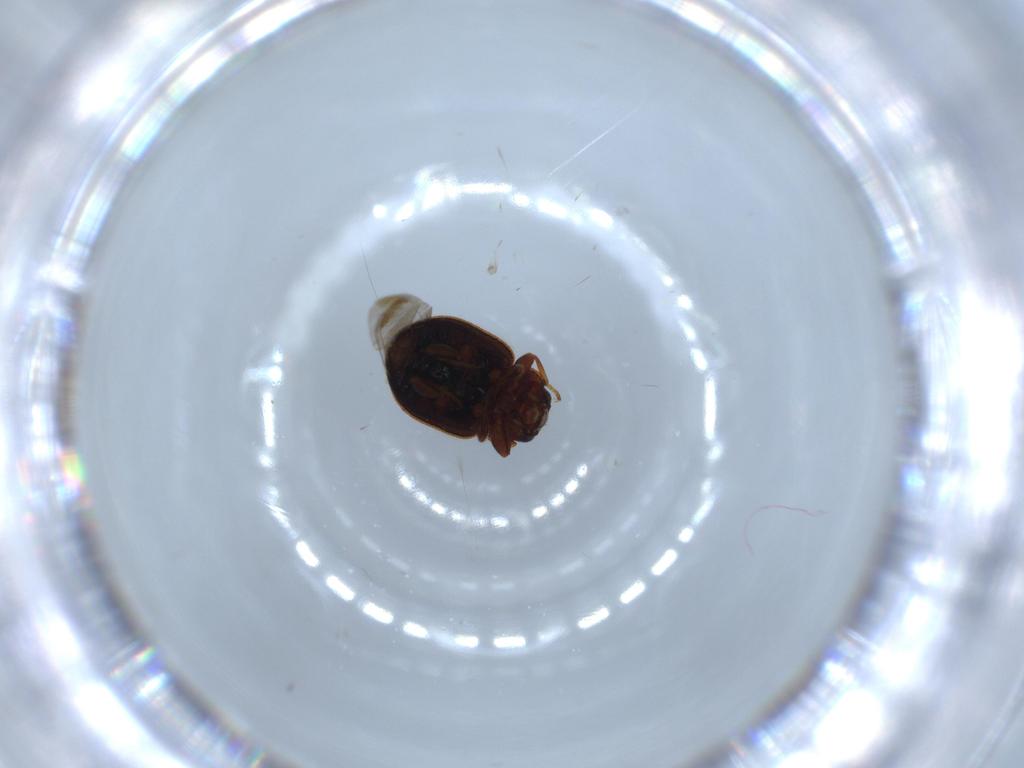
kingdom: Animalia
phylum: Arthropoda
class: Insecta
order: Coleoptera
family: Coccinellidae
